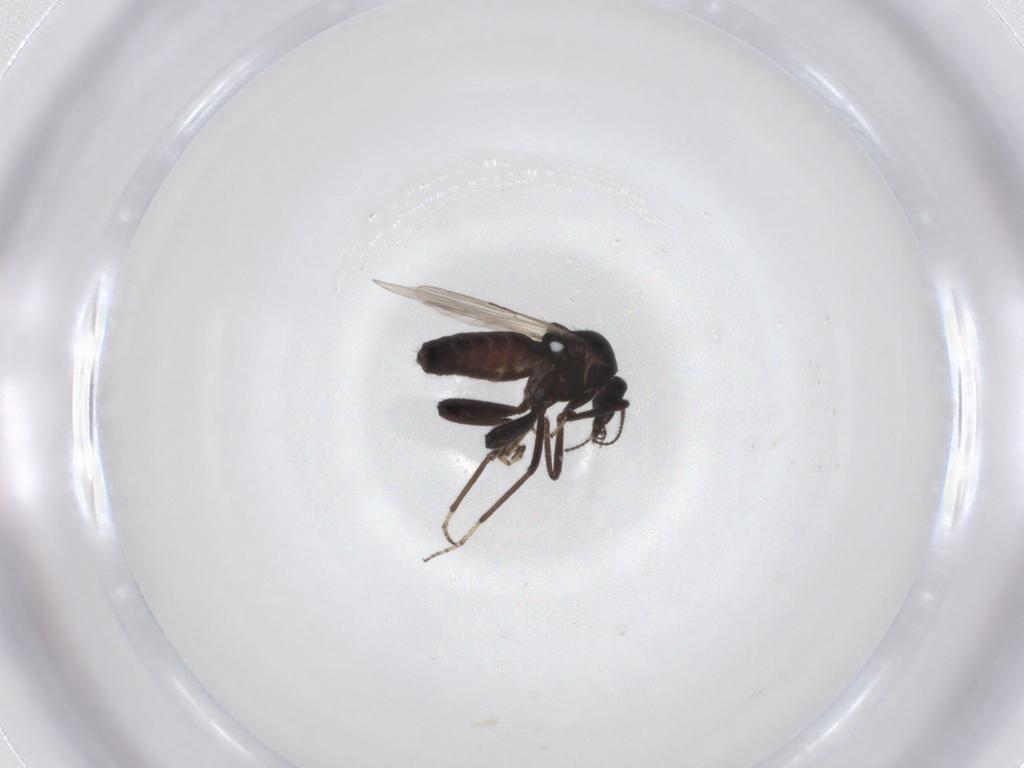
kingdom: Animalia
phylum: Arthropoda
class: Insecta
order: Diptera
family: Ceratopogonidae
